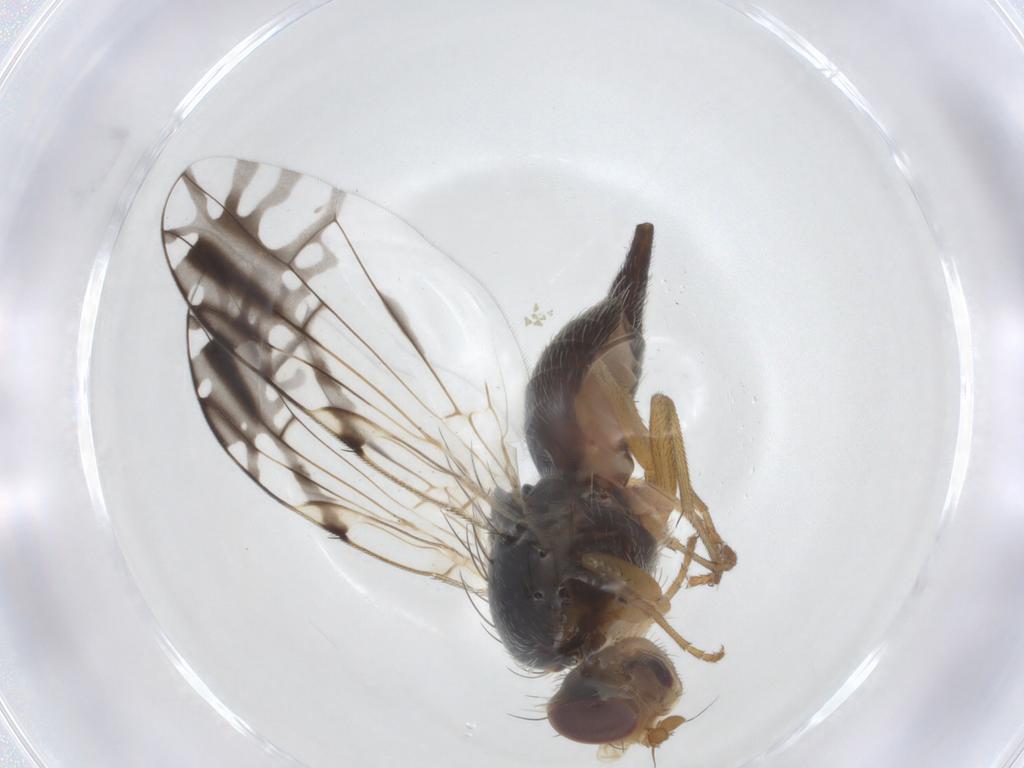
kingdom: Animalia
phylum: Arthropoda
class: Insecta
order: Diptera
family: Tephritidae
